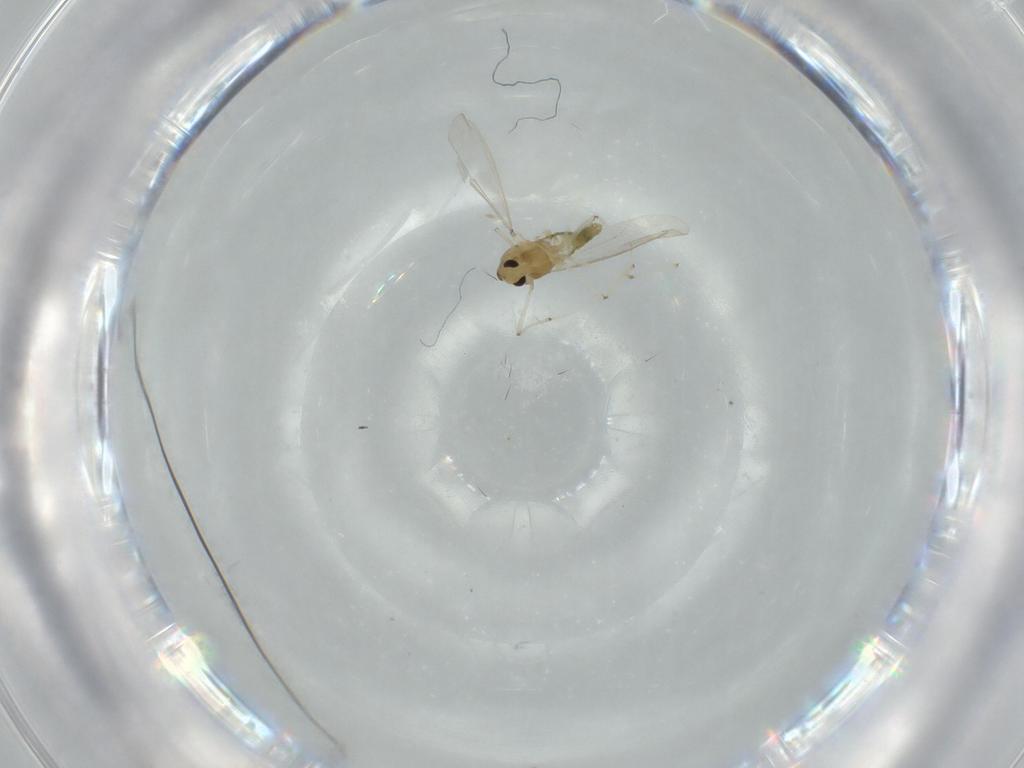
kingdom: Animalia
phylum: Arthropoda
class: Insecta
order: Diptera
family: Chironomidae
